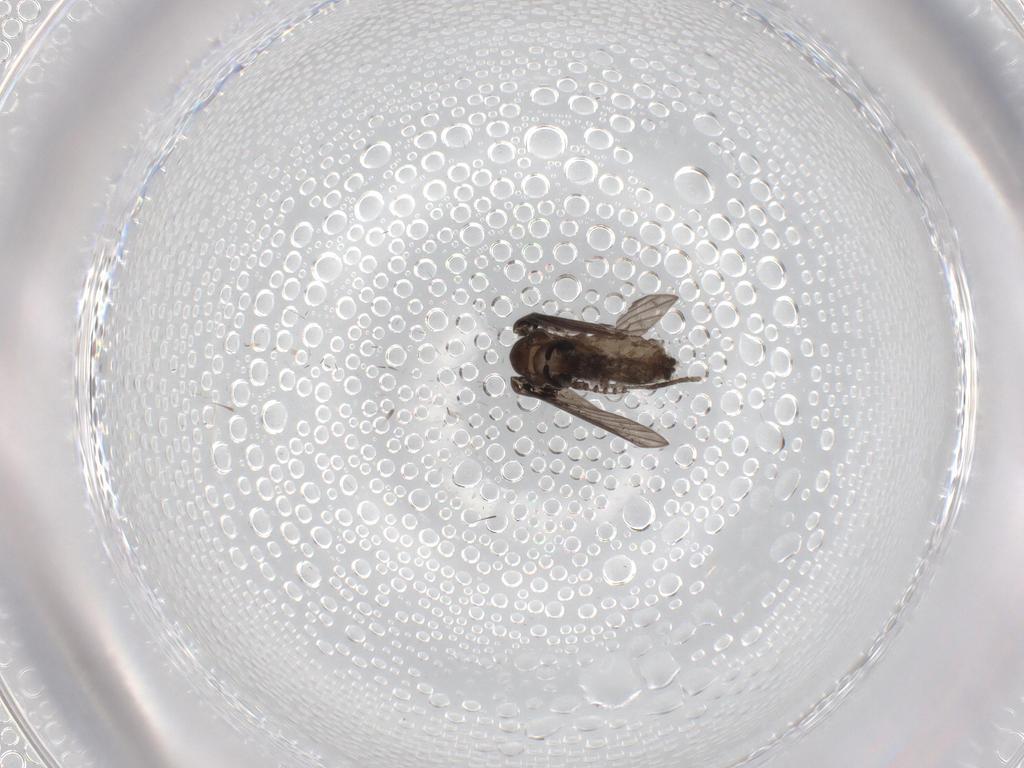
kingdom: Animalia
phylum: Arthropoda
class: Insecta
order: Diptera
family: Psychodidae
